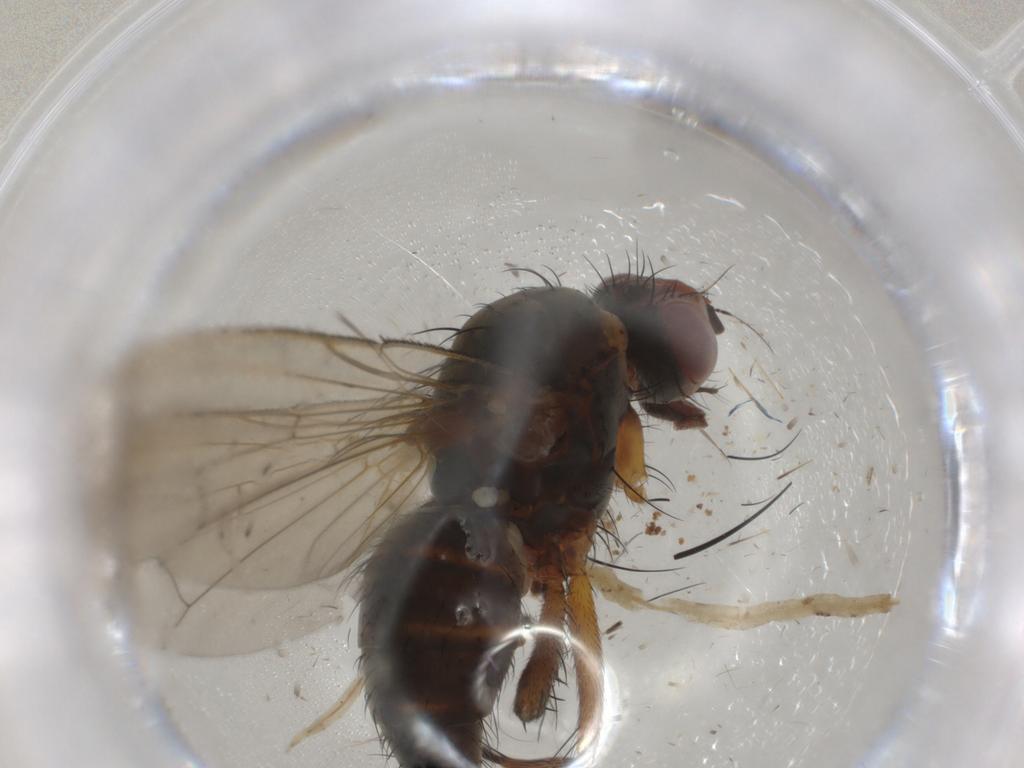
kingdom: Animalia
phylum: Arthropoda
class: Insecta
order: Diptera
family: Anthomyiidae
